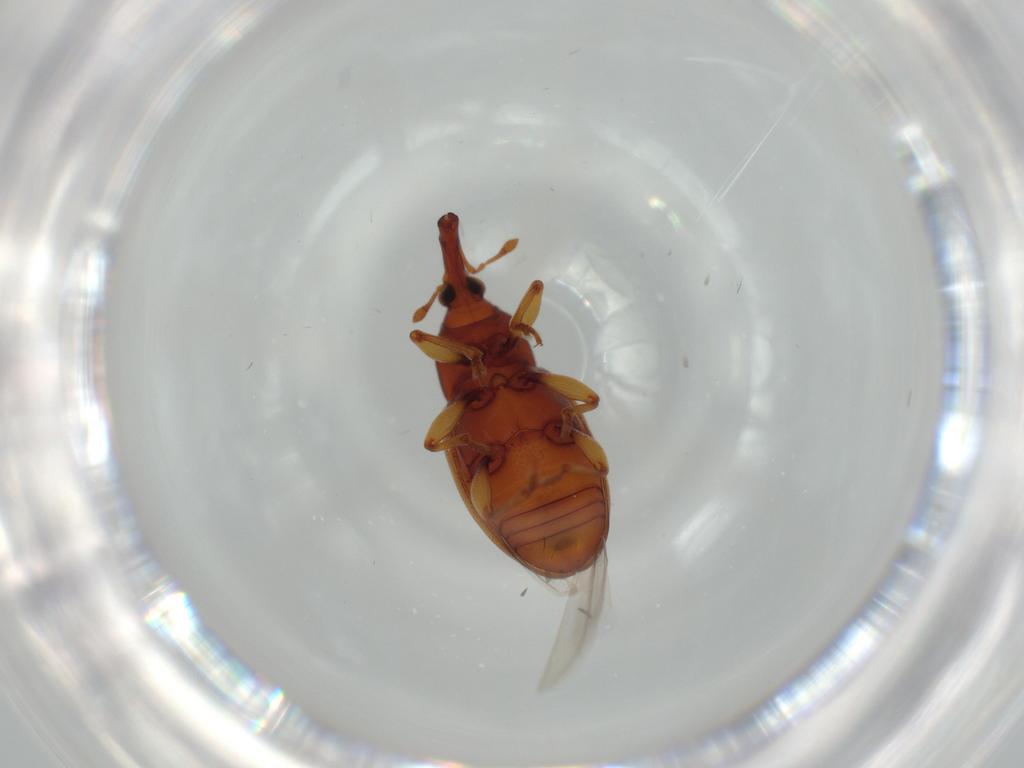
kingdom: Animalia
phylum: Arthropoda
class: Insecta
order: Coleoptera
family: Curculionidae
